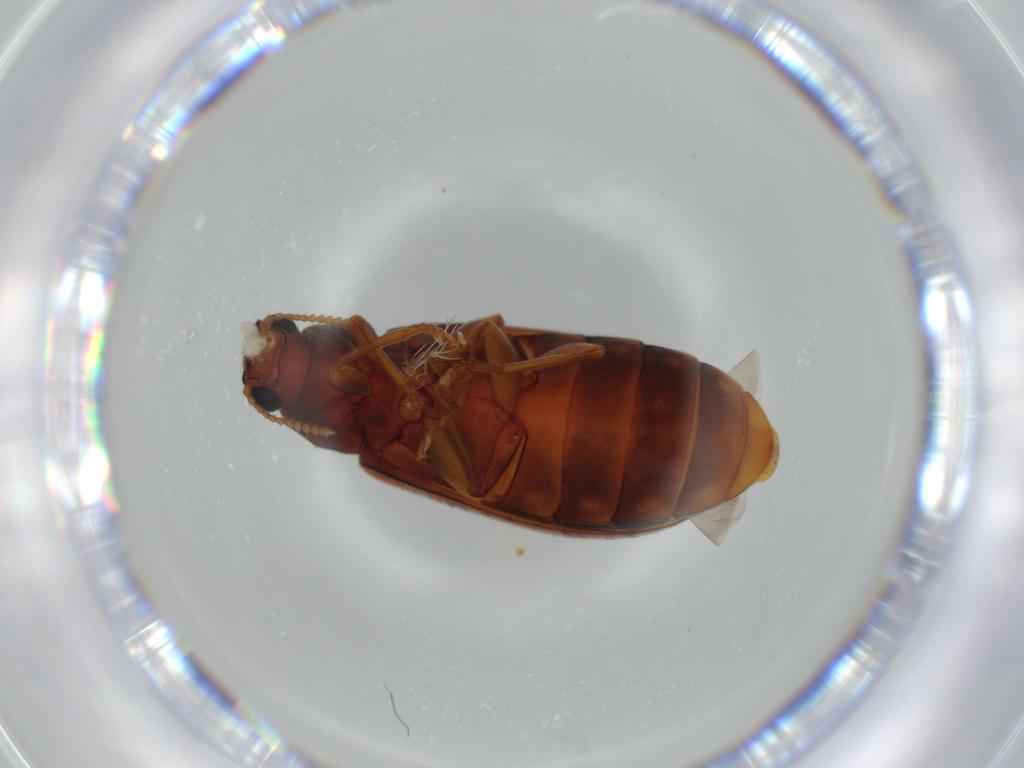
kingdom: Animalia
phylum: Arthropoda
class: Insecta
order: Coleoptera
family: Mycteridae
